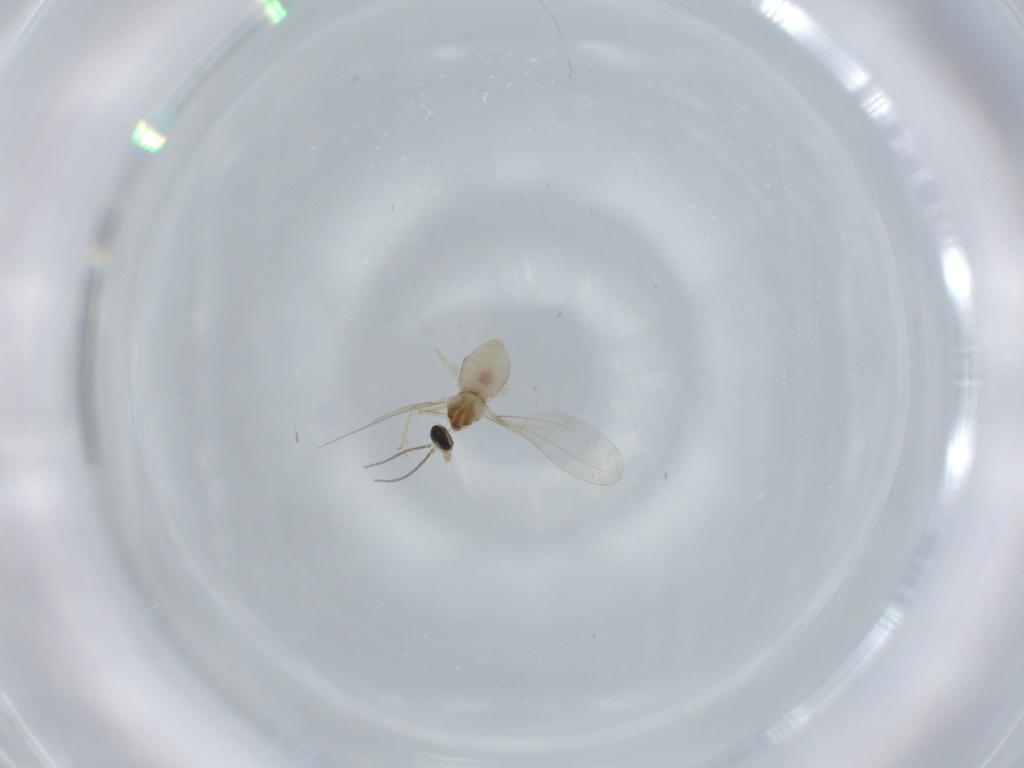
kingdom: Animalia
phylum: Arthropoda
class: Insecta
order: Diptera
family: Cecidomyiidae
